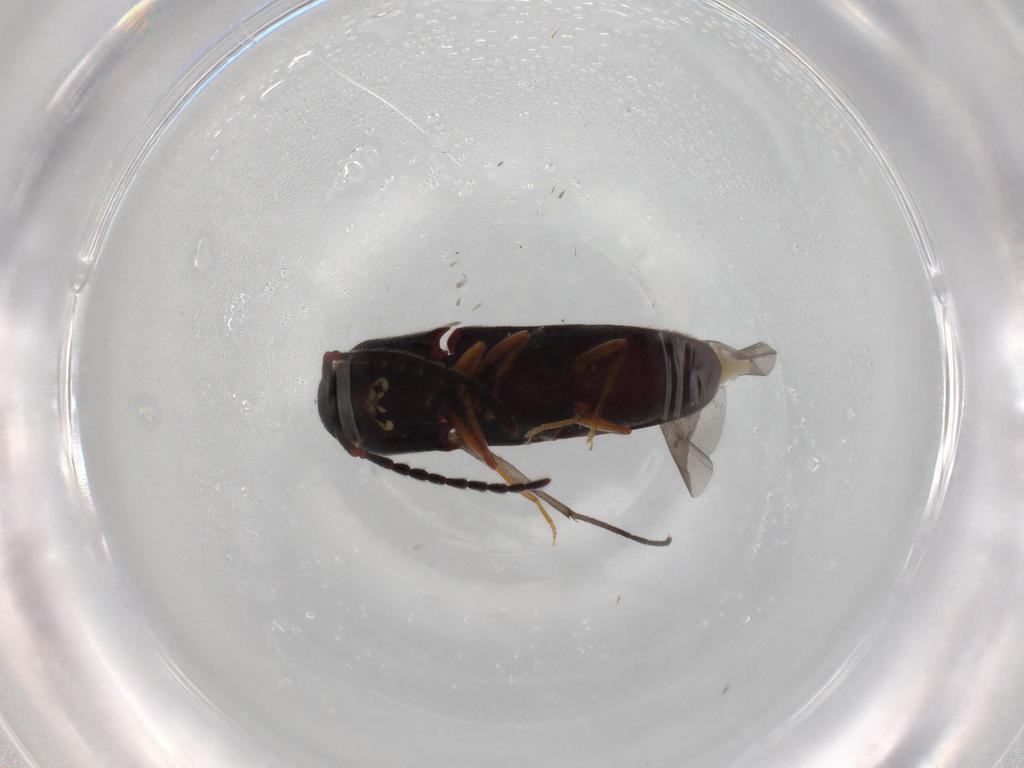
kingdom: Animalia
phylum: Arthropoda
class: Insecta
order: Coleoptera
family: Eucnemidae
